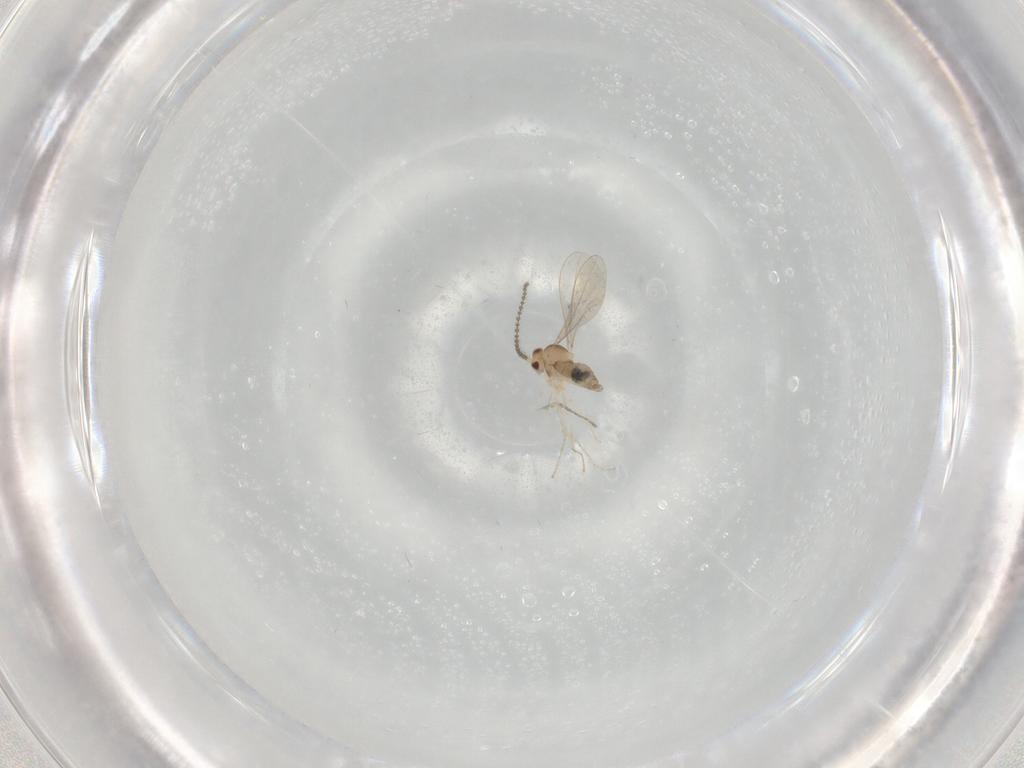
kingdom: Animalia
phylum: Arthropoda
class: Insecta
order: Diptera
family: Cecidomyiidae
